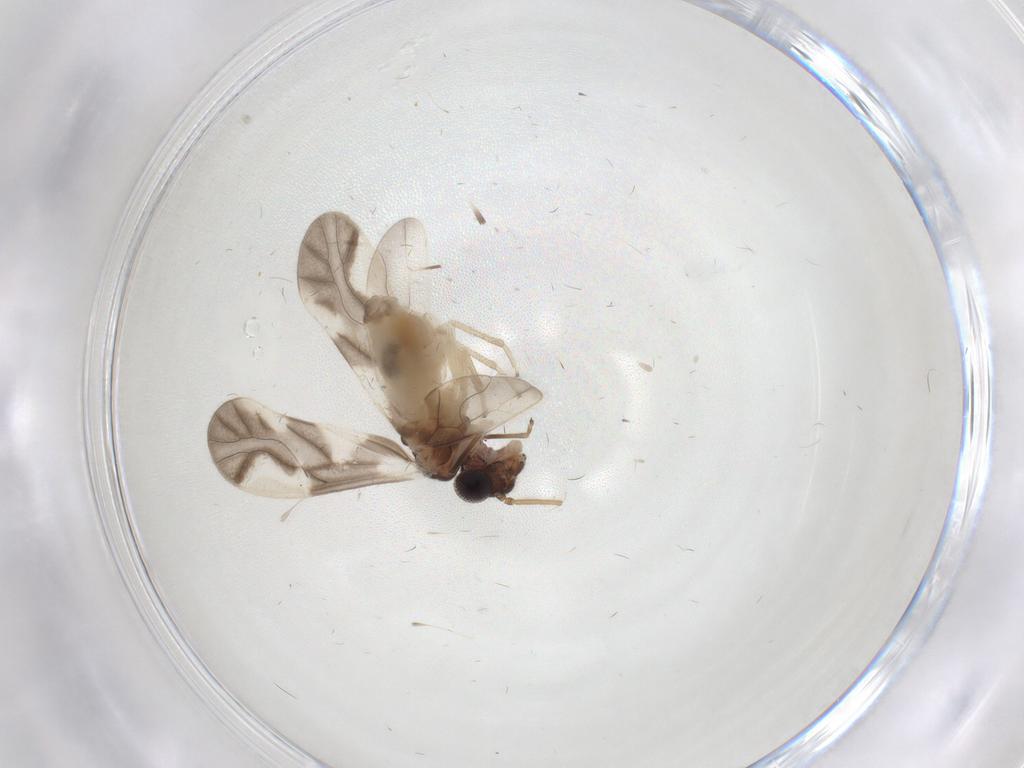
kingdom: Animalia
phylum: Arthropoda
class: Insecta
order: Psocodea
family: Caeciliusidae
